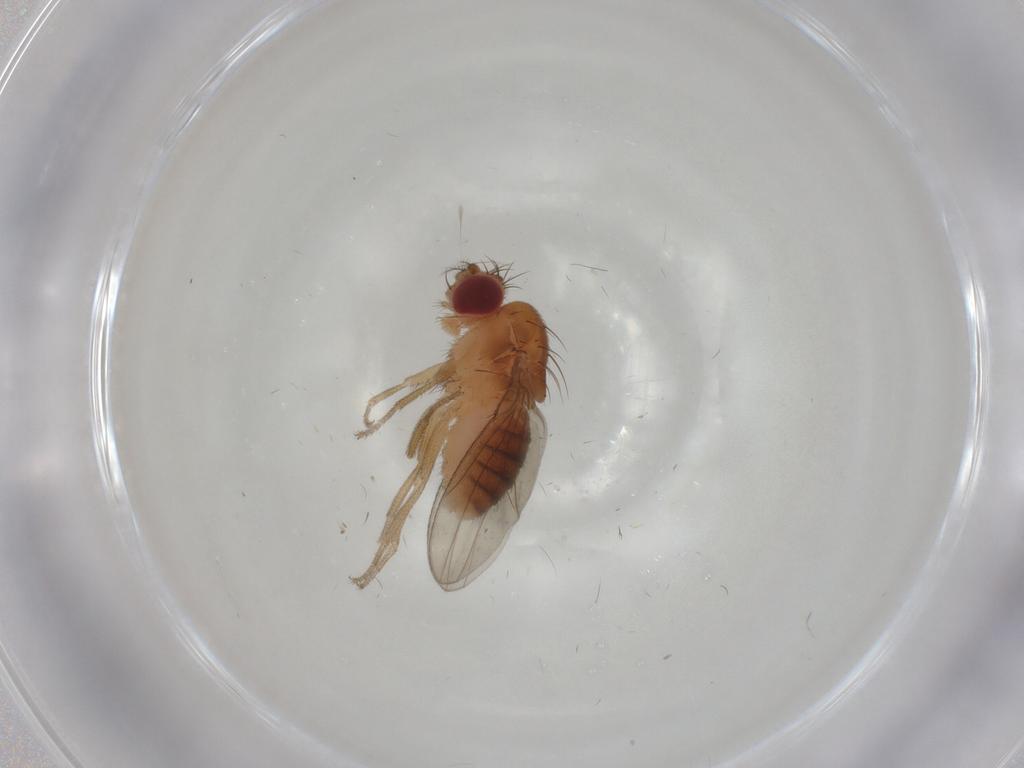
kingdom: Animalia
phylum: Arthropoda
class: Insecta
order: Diptera
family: Drosophilidae
